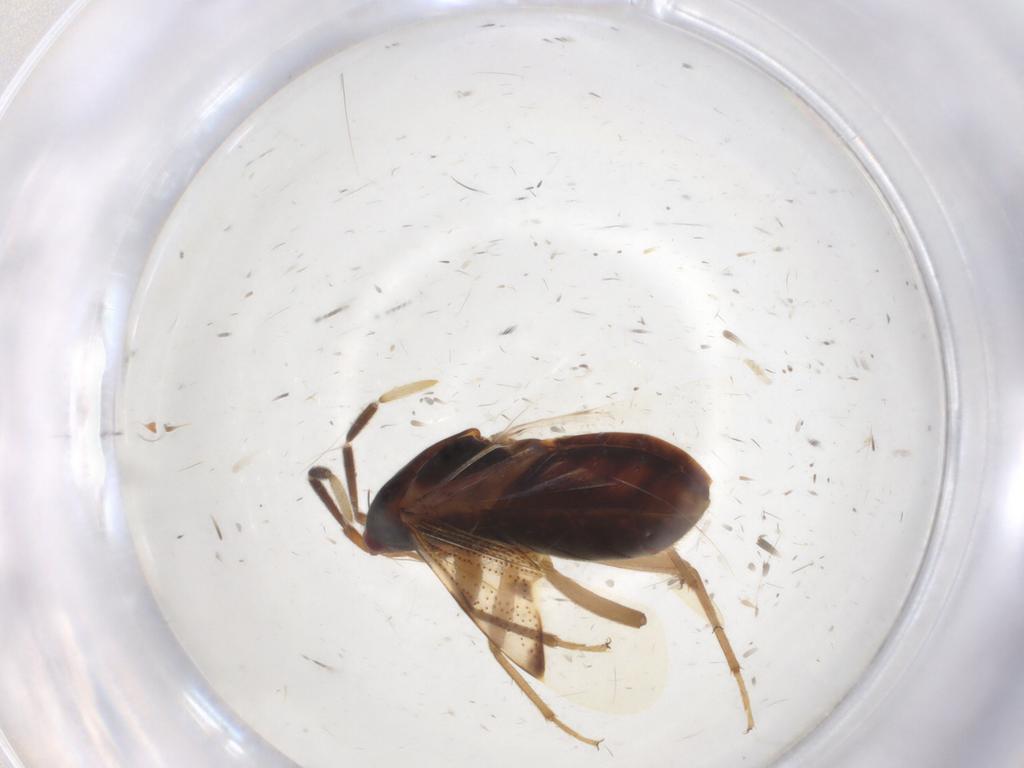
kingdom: Animalia
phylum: Arthropoda
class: Insecta
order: Hemiptera
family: Rhyparochromidae
